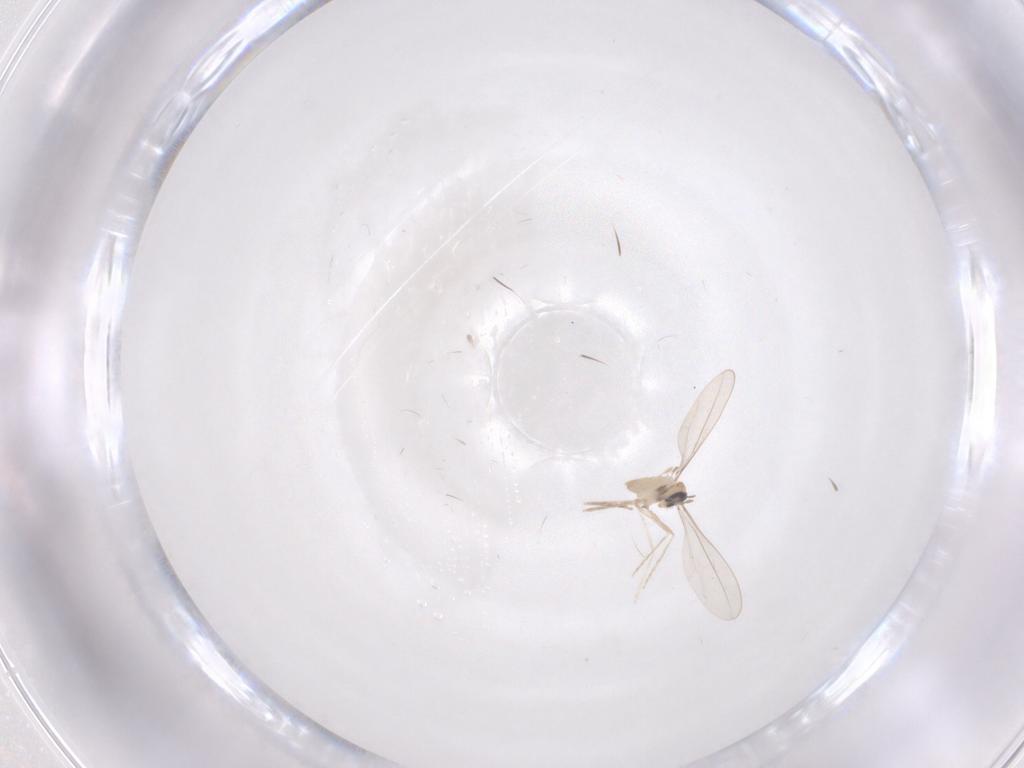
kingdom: Animalia
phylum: Arthropoda
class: Insecta
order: Diptera
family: Cecidomyiidae
